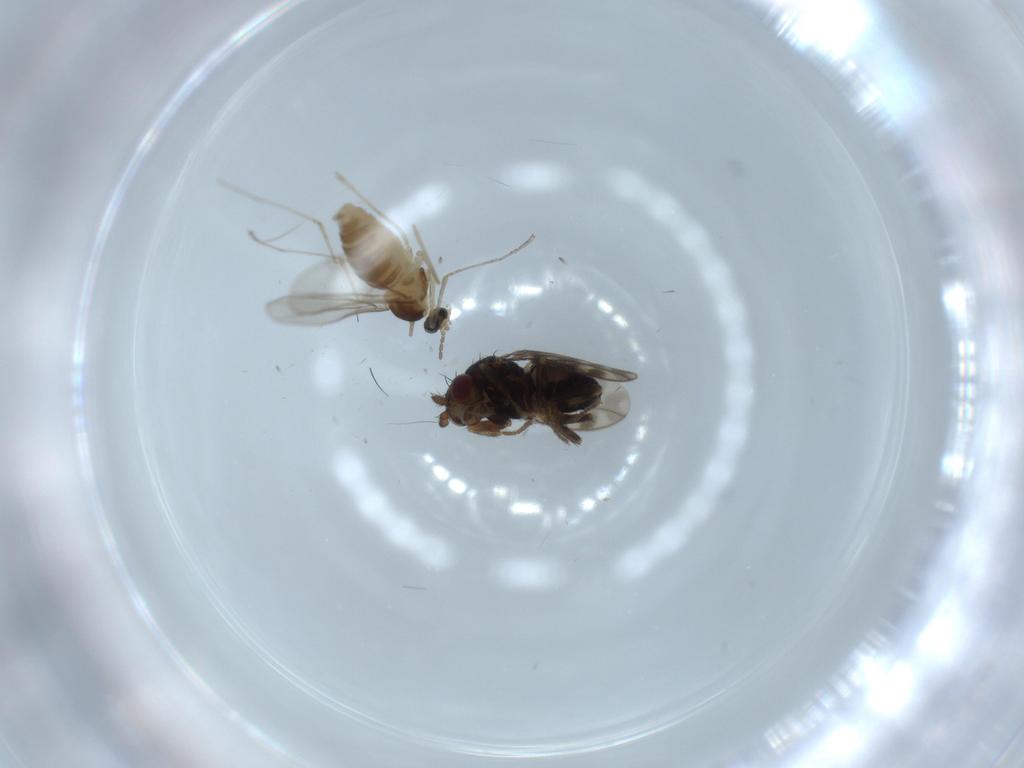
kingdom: Animalia
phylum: Arthropoda
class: Insecta
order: Diptera
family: Sphaeroceridae
